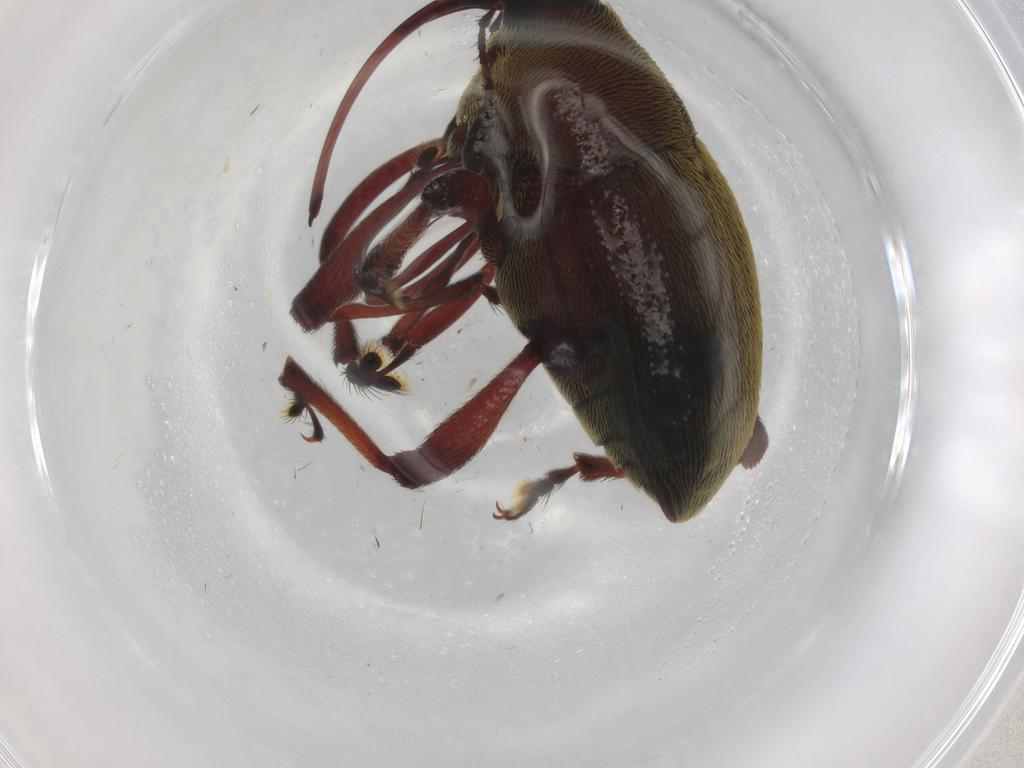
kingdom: Animalia
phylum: Arthropoda
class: Insecta
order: Coleoptera
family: Curculionidae
